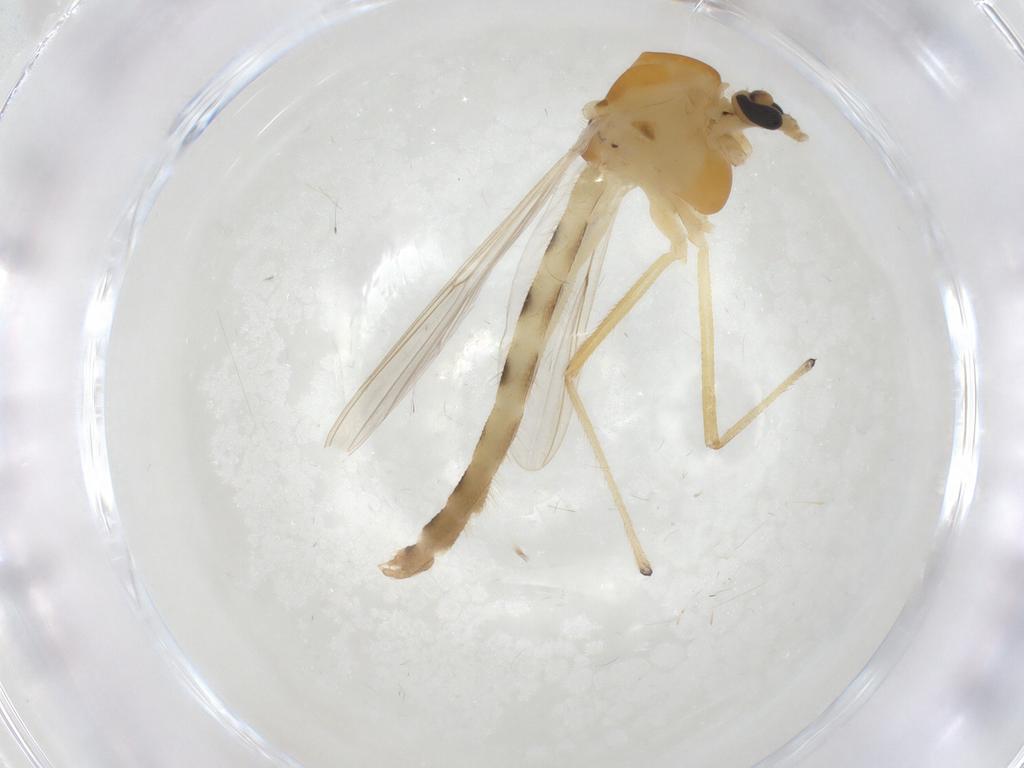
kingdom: Animalia
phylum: Arthropoda
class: Insecta
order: Diptera
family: Chironomidae
